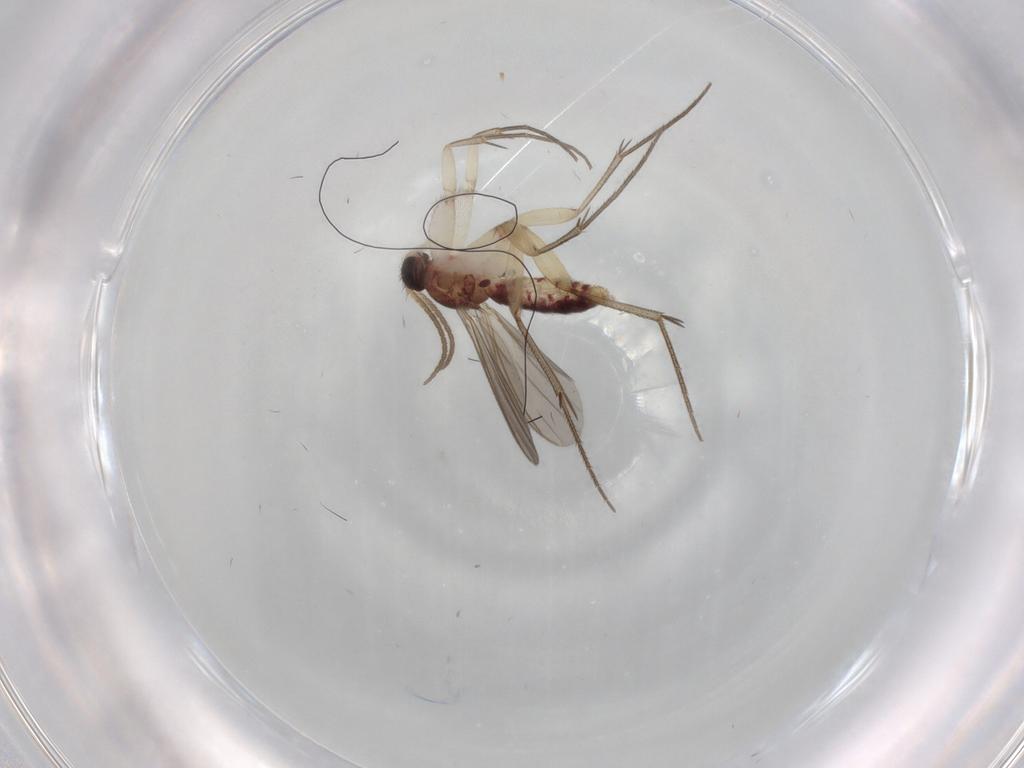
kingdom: Animalia
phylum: Arthropoda
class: Insecta
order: Diptera
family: Mycetophilidae
